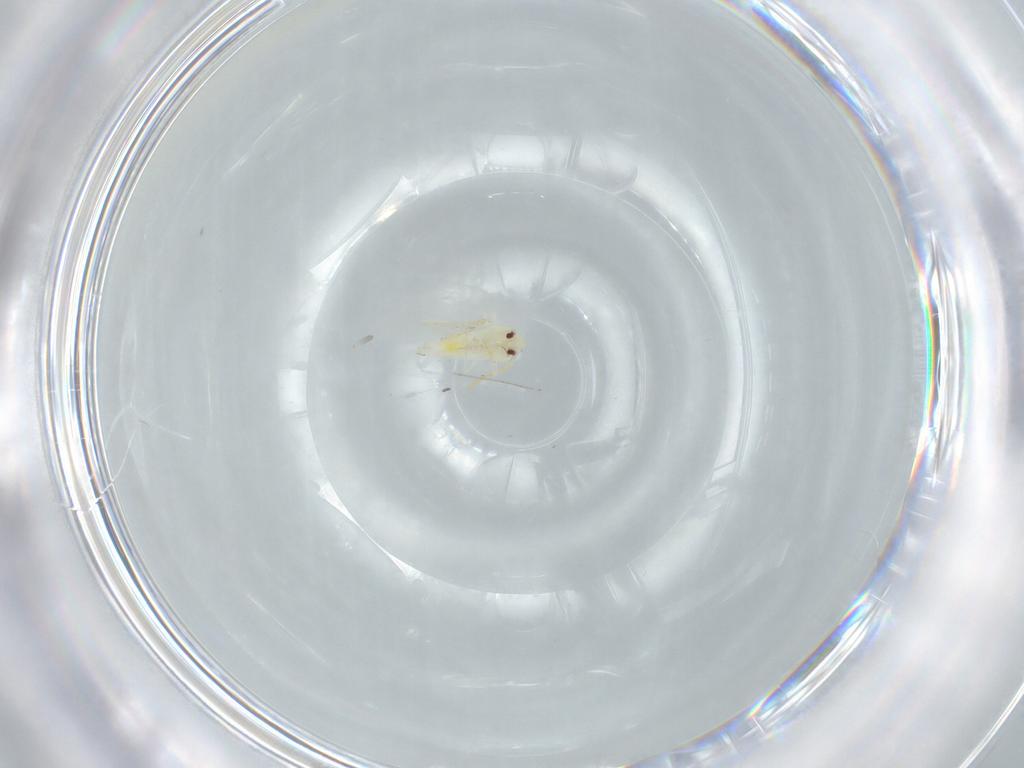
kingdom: Animalia
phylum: Arthropoda
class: Insecta
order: Hemiptera
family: Aleyrodidae
